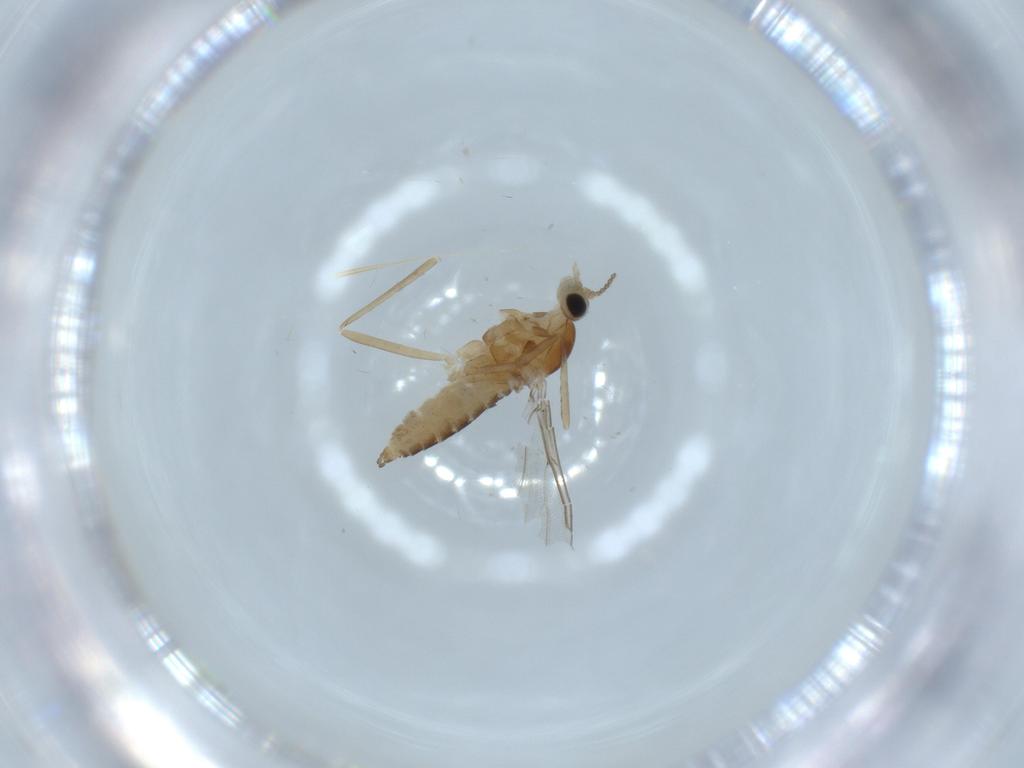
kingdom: Animalia
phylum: Arthropoda
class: Insecta
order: Diptera
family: Cecidomyiidae
